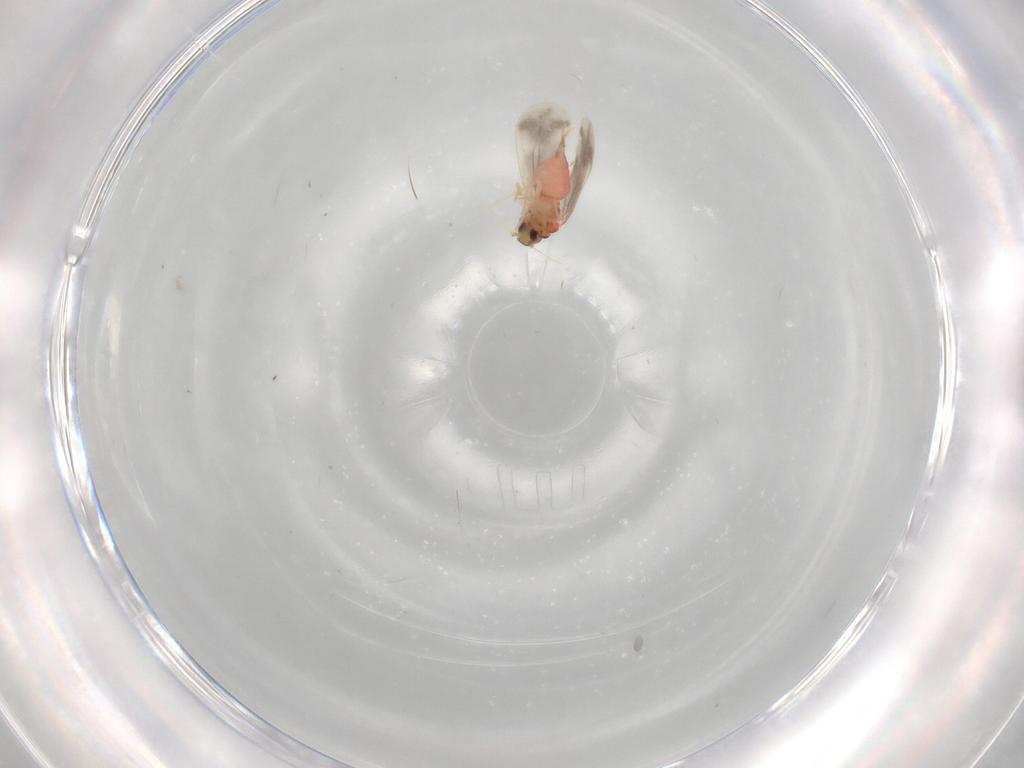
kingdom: Animalia
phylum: Arthropoda
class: Insecta
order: Hemiptera
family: Aleyrodidae
